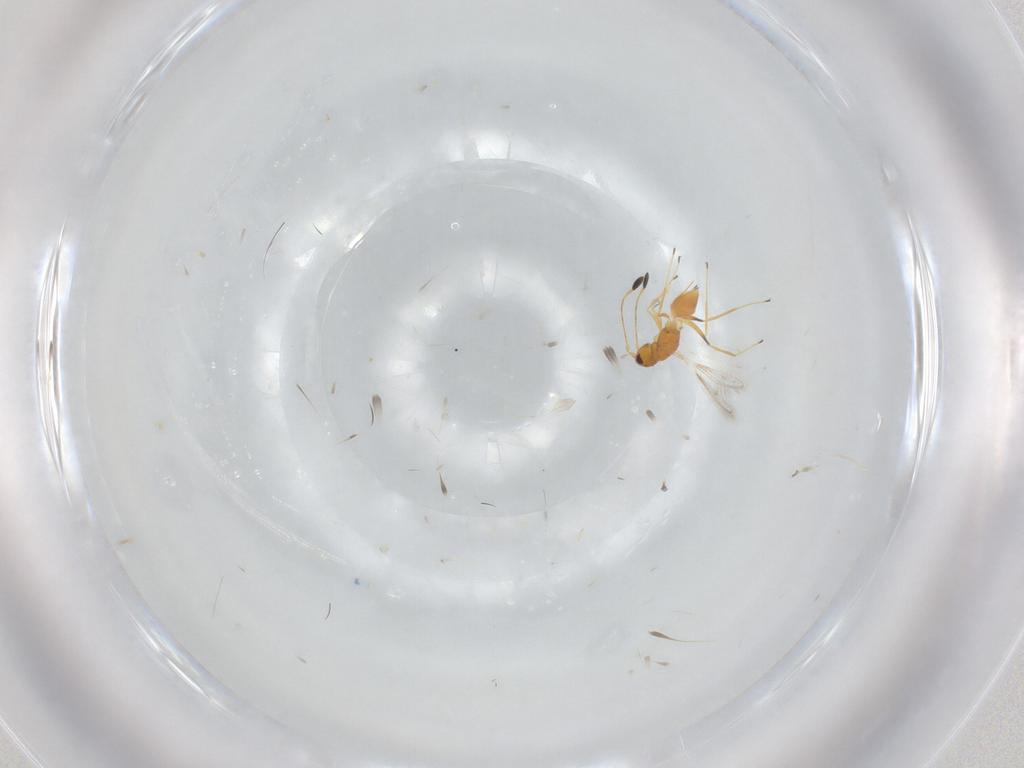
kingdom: Animalia
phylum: Arthropoda
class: Insecta
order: Hymenoptera
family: Mymaridae
